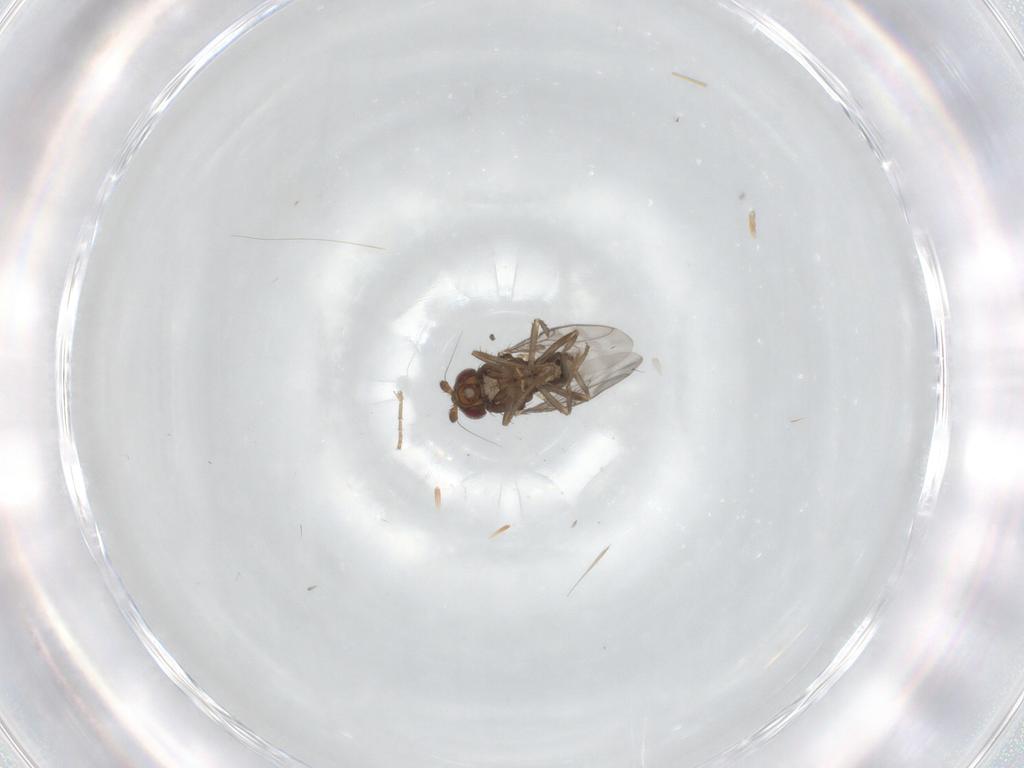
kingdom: Animalia
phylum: Arthropoda
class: Insecta
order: Diptera
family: Sphaeroceridae
